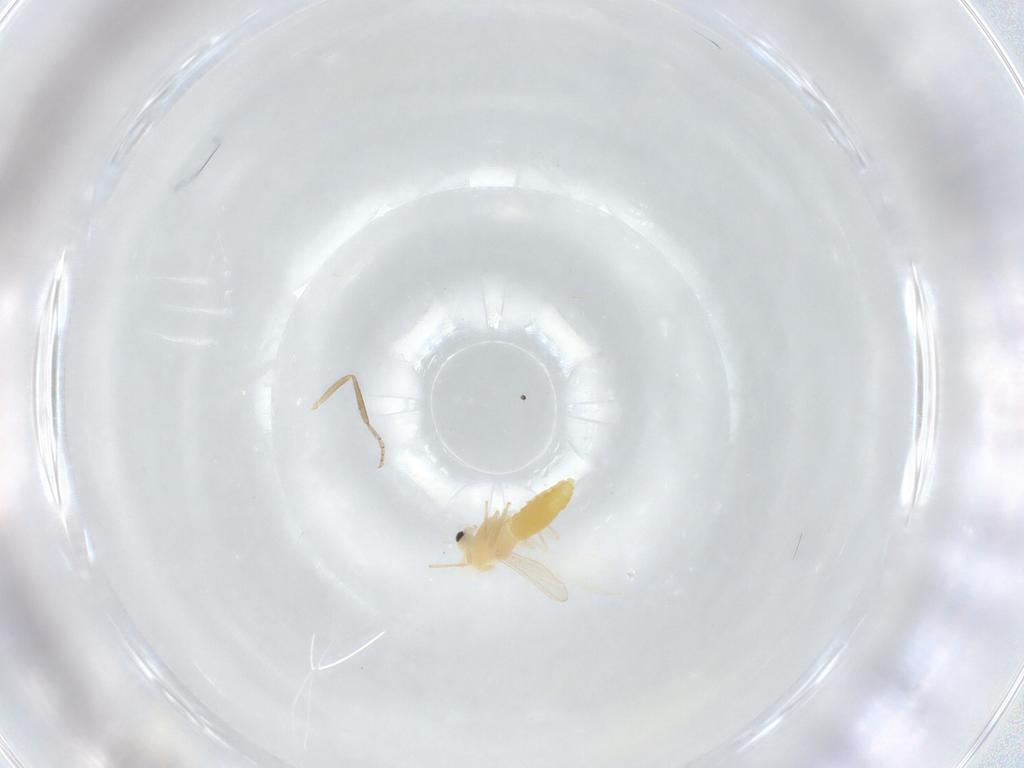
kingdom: Animalia
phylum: Arthropoda
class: Insecta
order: Diptera
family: Chironomidae
